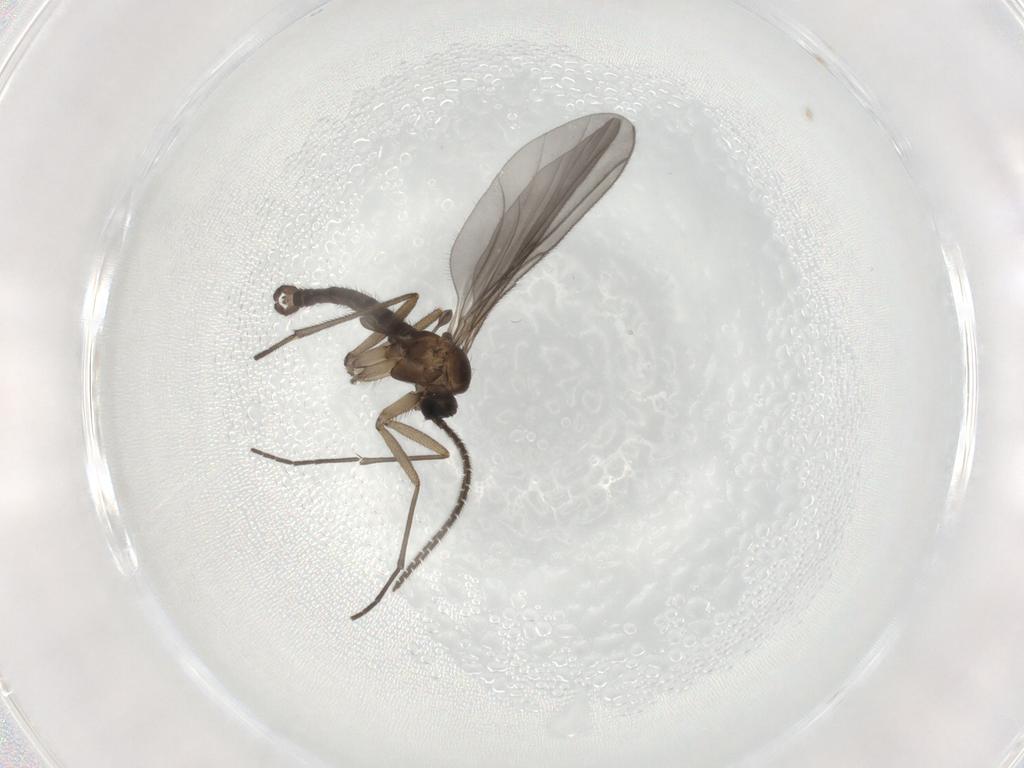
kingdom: Animalia
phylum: Arthropoda
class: Insecta
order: Diptera
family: Sciaridae
